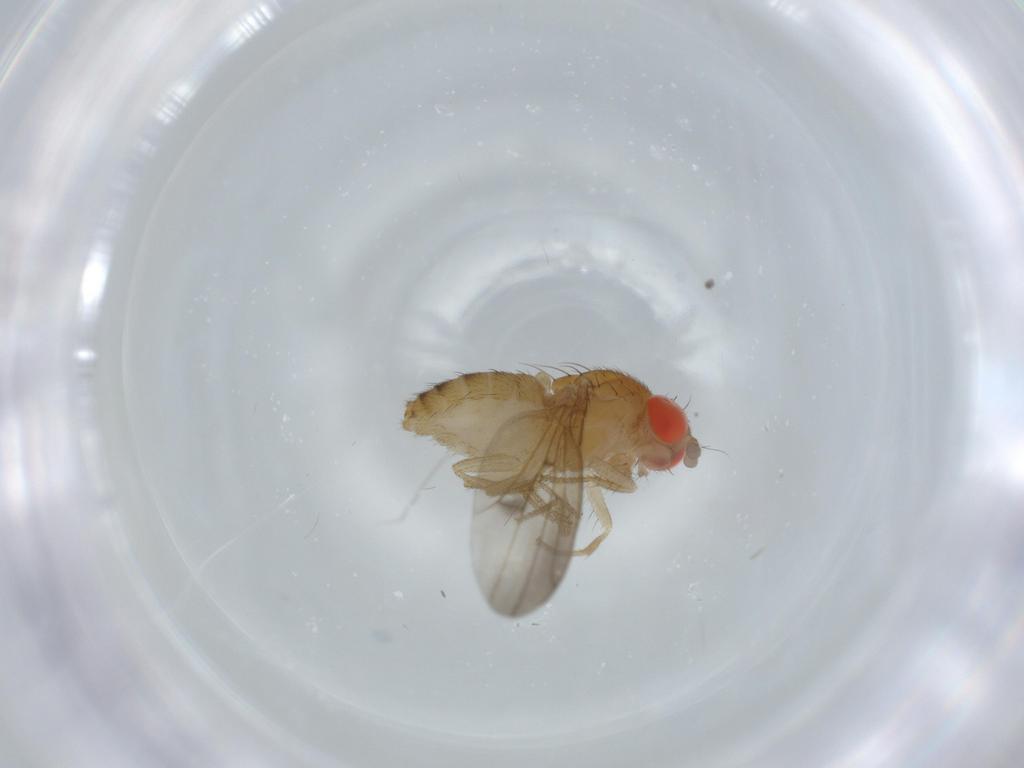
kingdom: Animalia
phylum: Arthropoda
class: Insecta
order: Diptera
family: Drosophilidae
